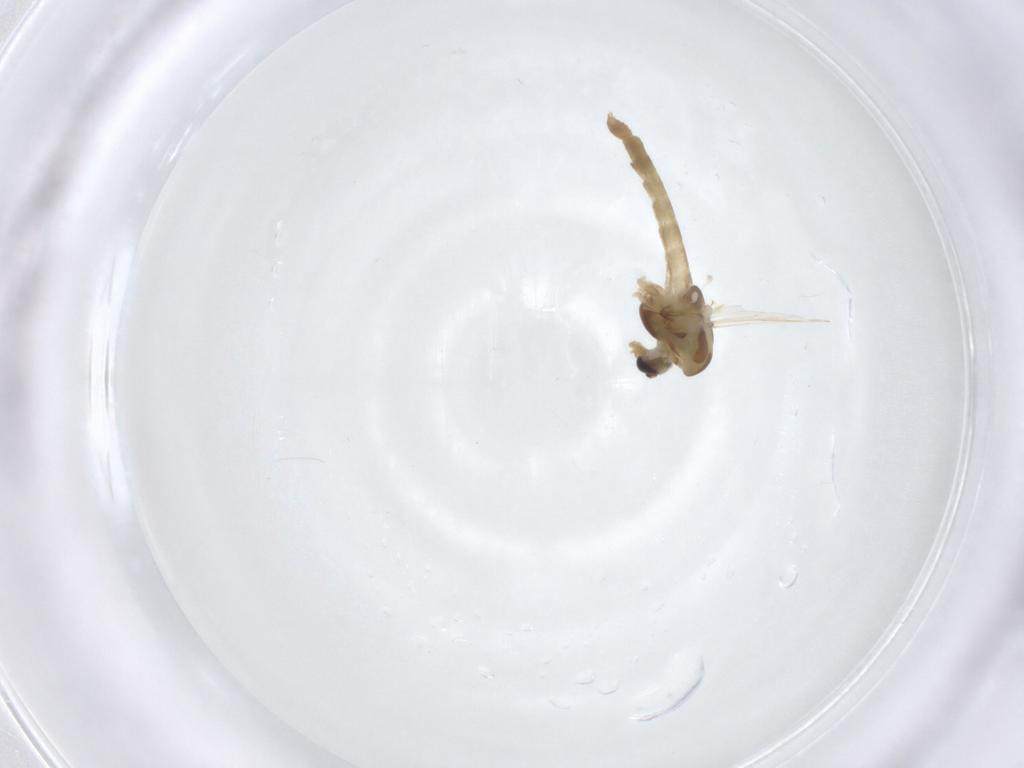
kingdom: Animalia
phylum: Arthropoda
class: Insecta
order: Diptera
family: Chironomidae
